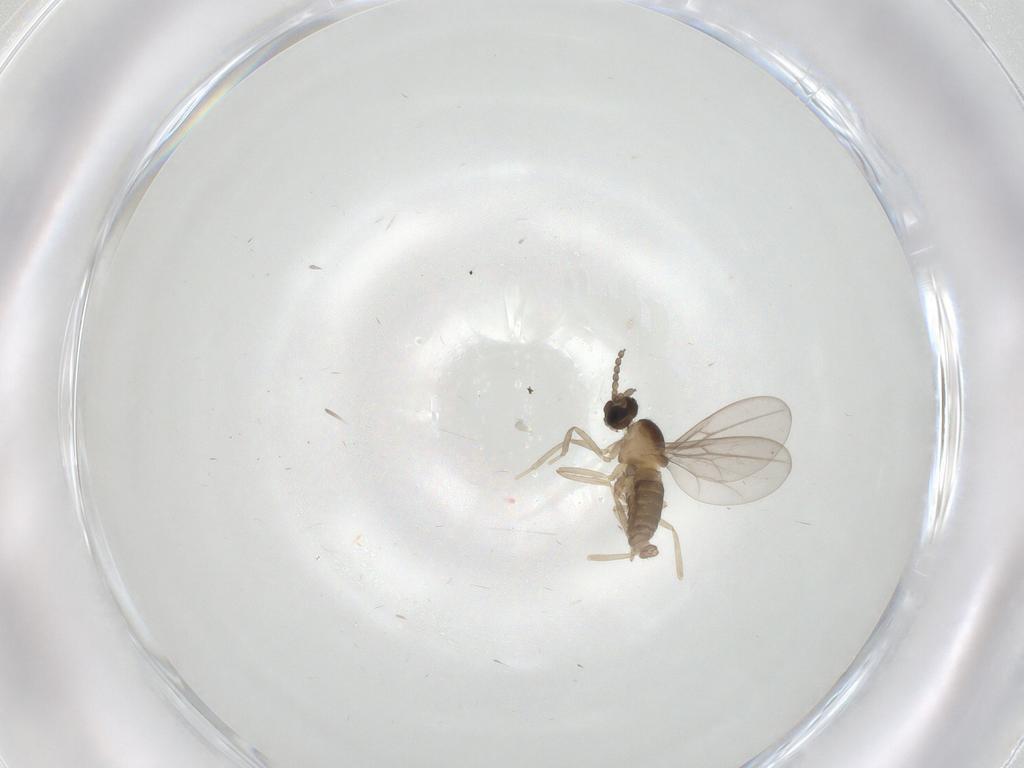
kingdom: Animalia
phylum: Arthropoda
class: Insecta
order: Diptera
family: Cecidomyiidae
